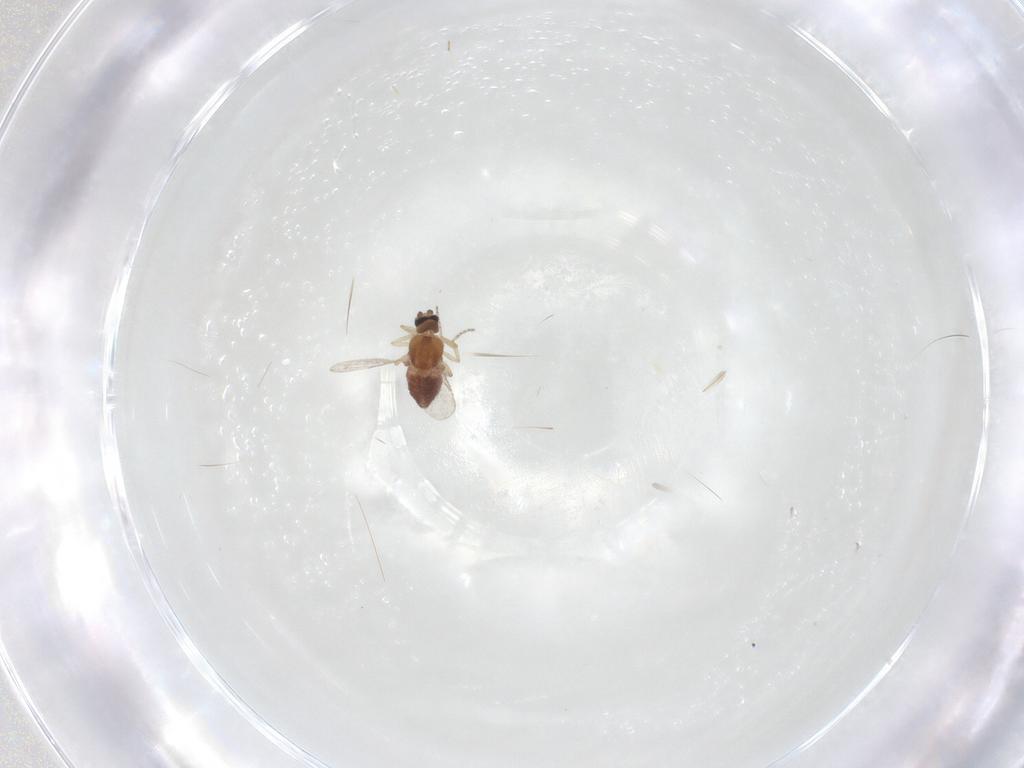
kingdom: Animalia
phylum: Arthropoda
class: Insecta
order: Diptera
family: Ceratopogonidae
